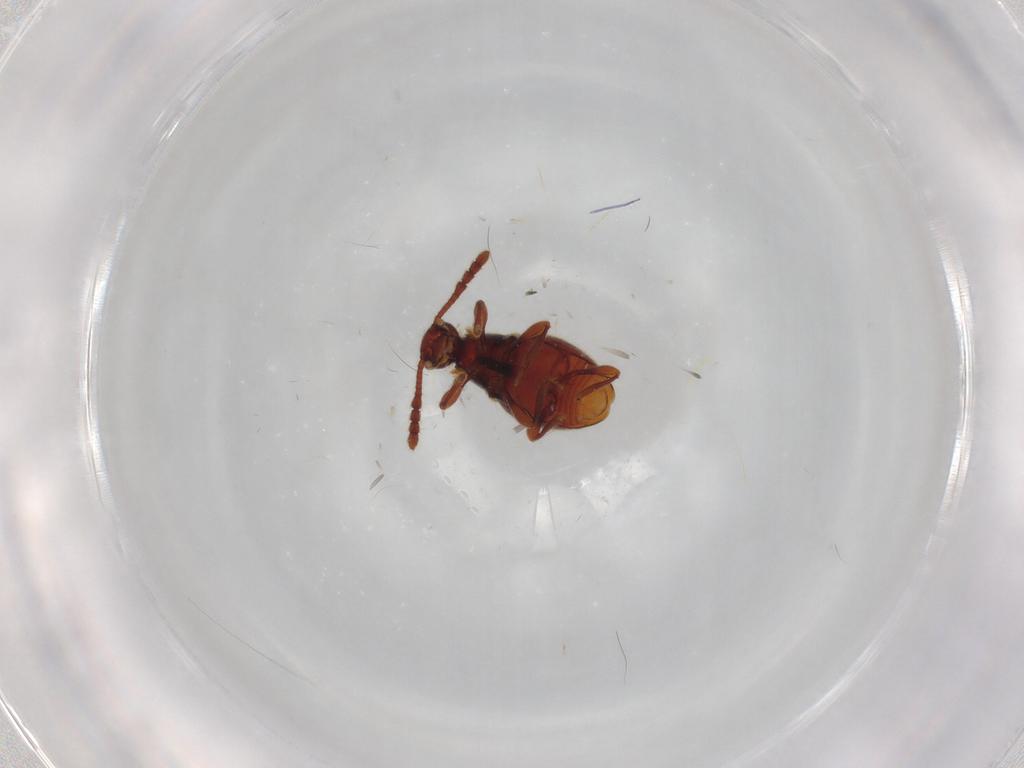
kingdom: Animalia
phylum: Arthropoda
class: Insecta
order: Coleoptera
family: Staphylinidae
